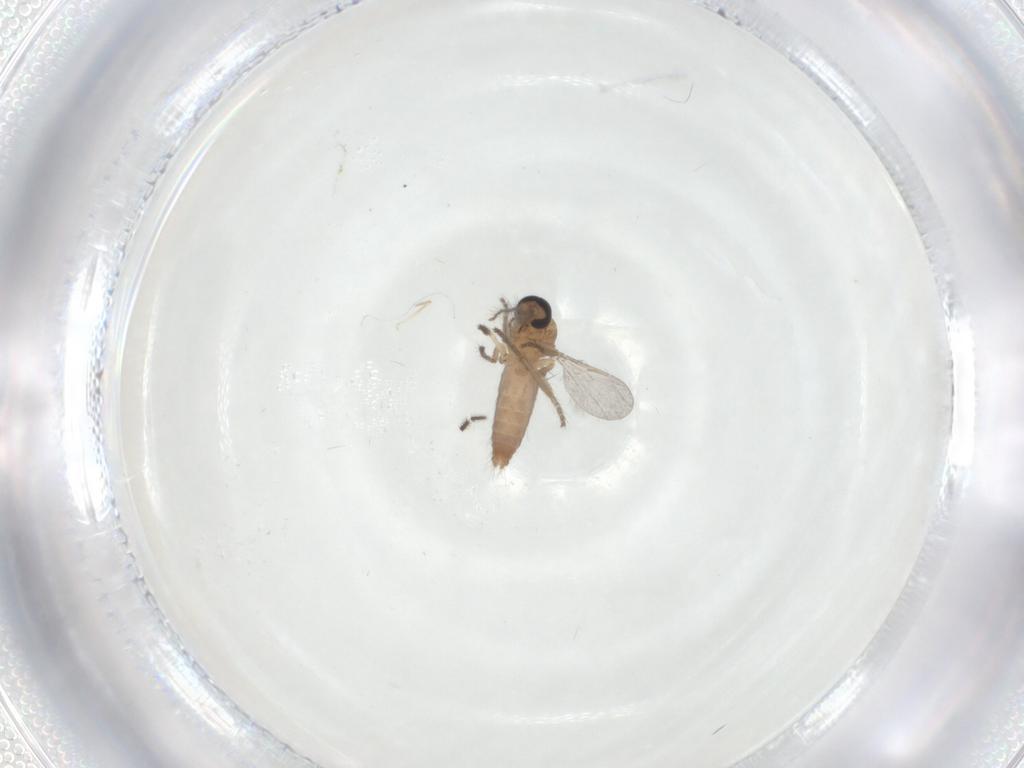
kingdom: Animalia
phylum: Arthropoda
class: Insecta
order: Diptera
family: Ceratopogonidae
